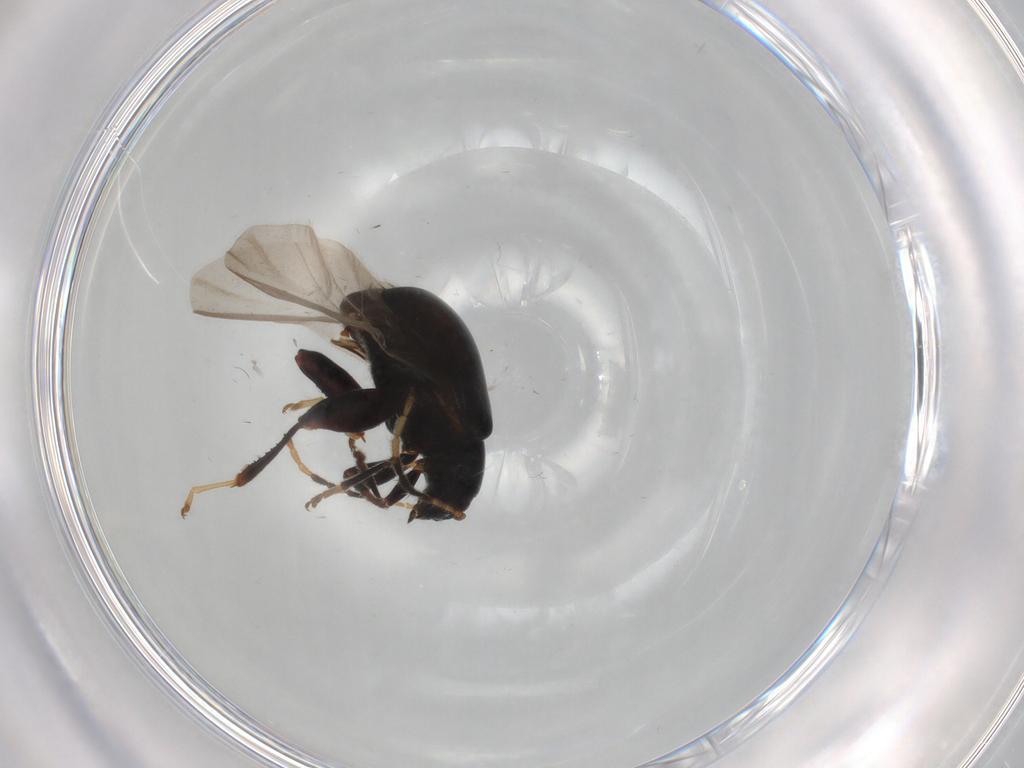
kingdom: Animalia
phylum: Arthropoda
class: Insecta
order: Coleoptera
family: Chrysomelidae
